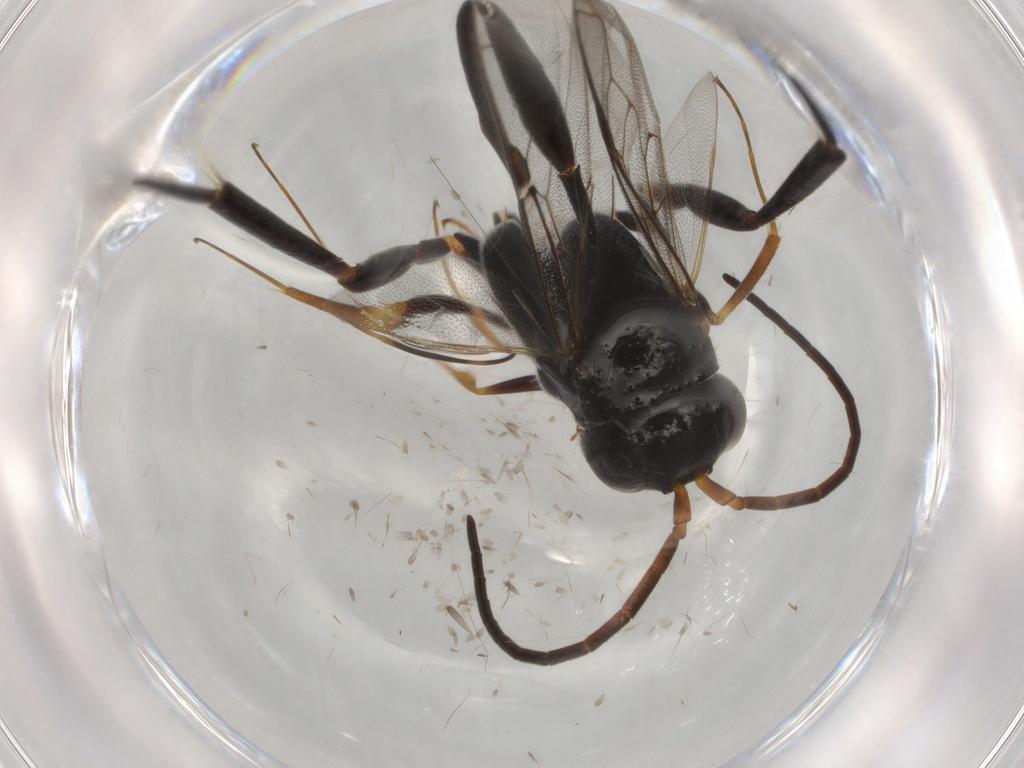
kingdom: Animalia
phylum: Arthropoda
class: Insecta
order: Hymenoptera
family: Evaniidae
